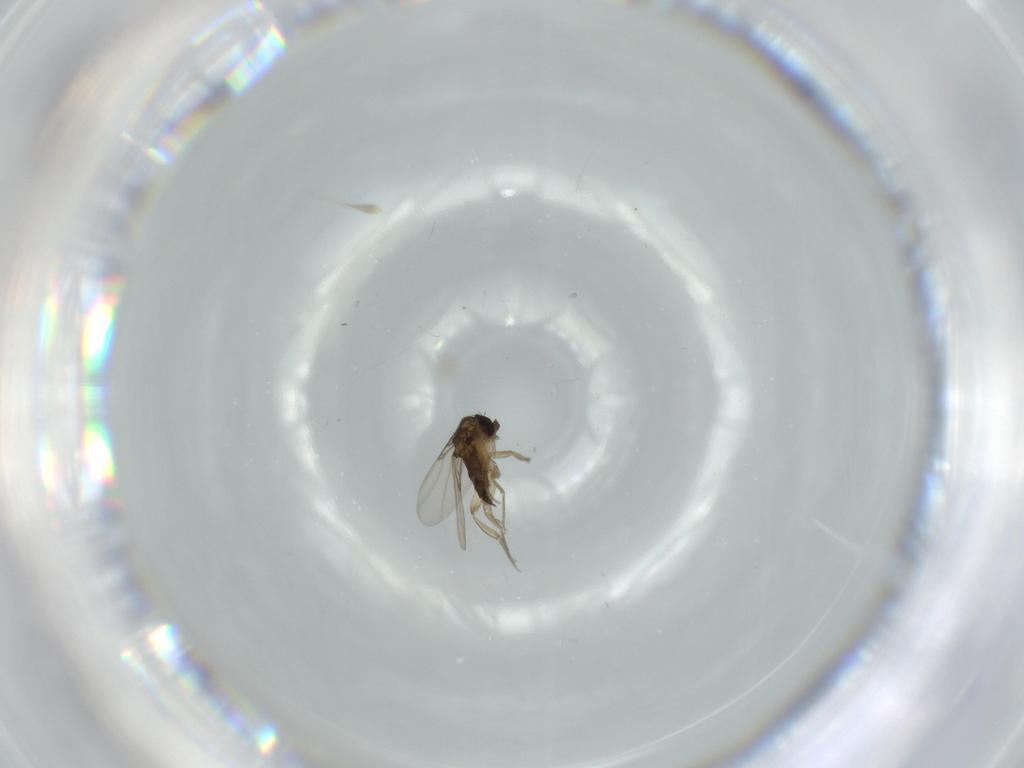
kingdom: Animalia
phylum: Arthropoda
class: Insecta
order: Diptera
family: Phoridae
